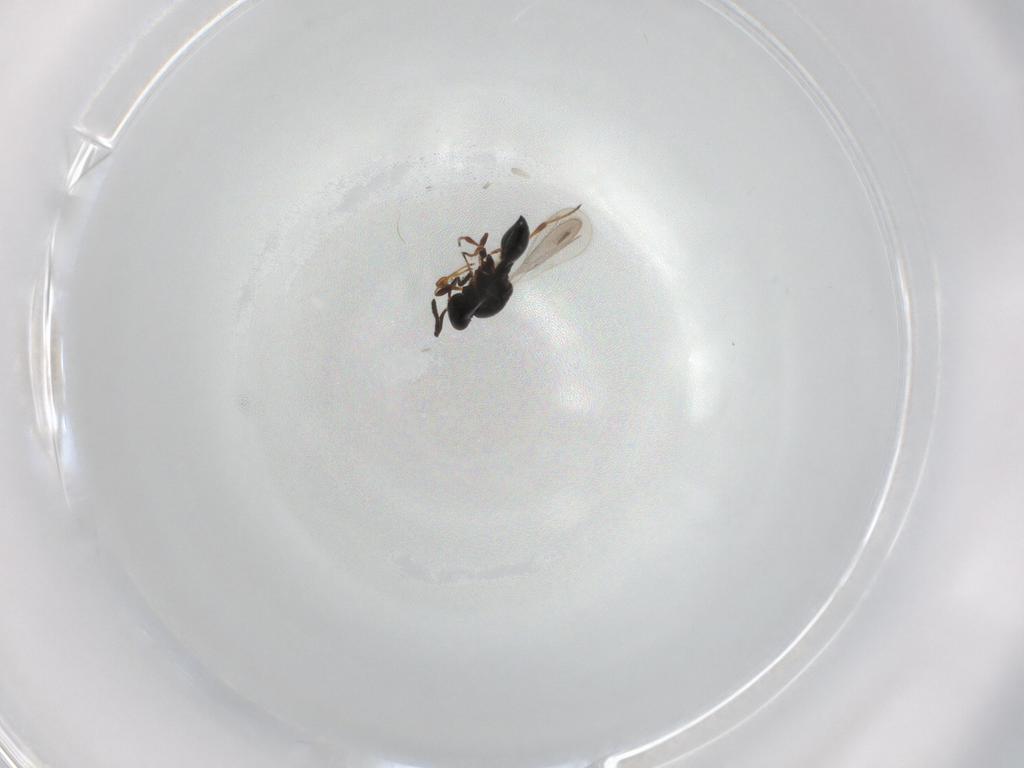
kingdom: Animalia
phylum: Arthropoda
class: Insecta
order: Hymenoptera
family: Platygastridae
